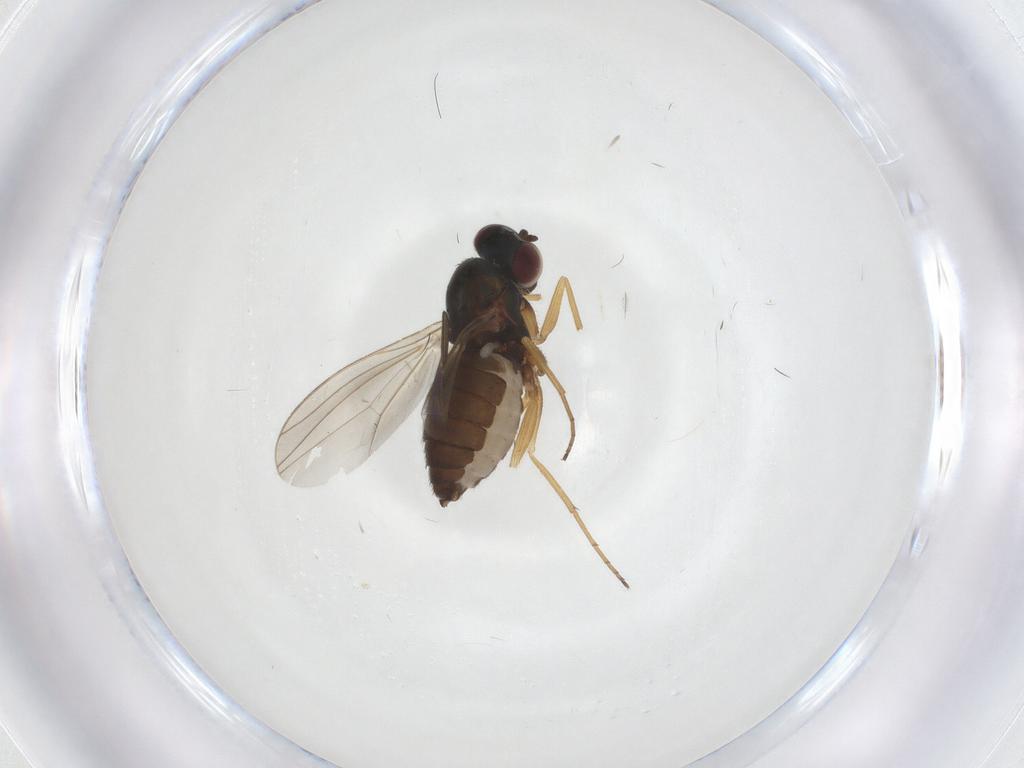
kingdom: Animalia
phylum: Arthropoda
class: Insecta
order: Diptera
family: Dolichopodidae
